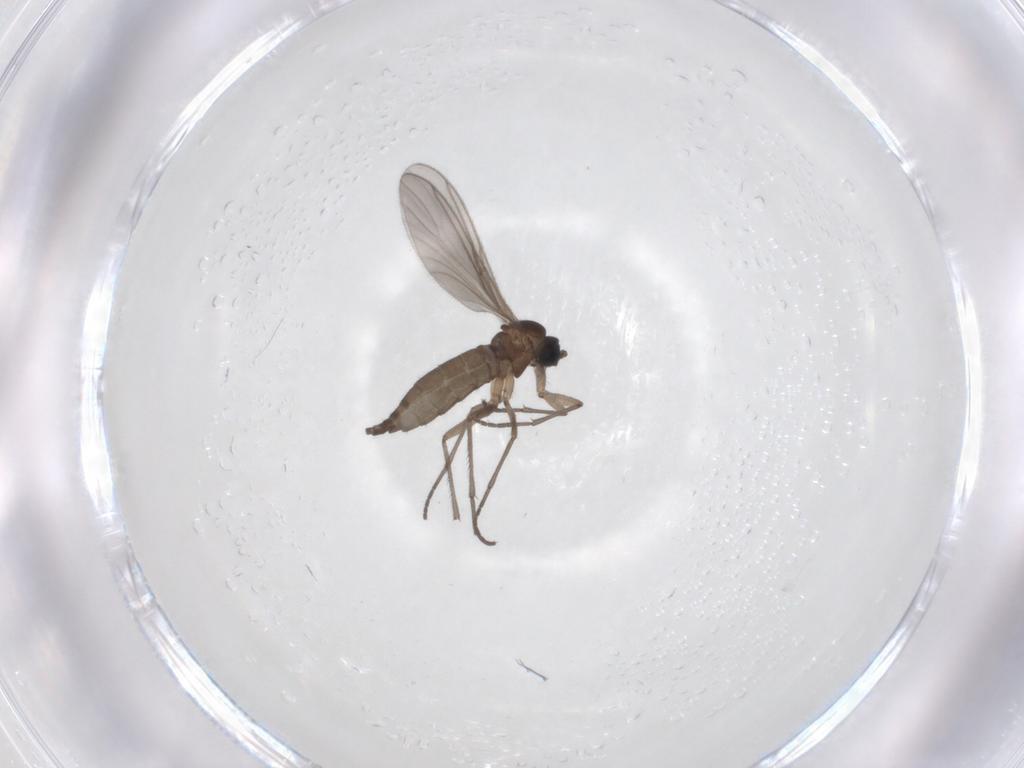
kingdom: Animalia
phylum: Arthropoda
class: Insecta
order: Diptera
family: Sciaridae
